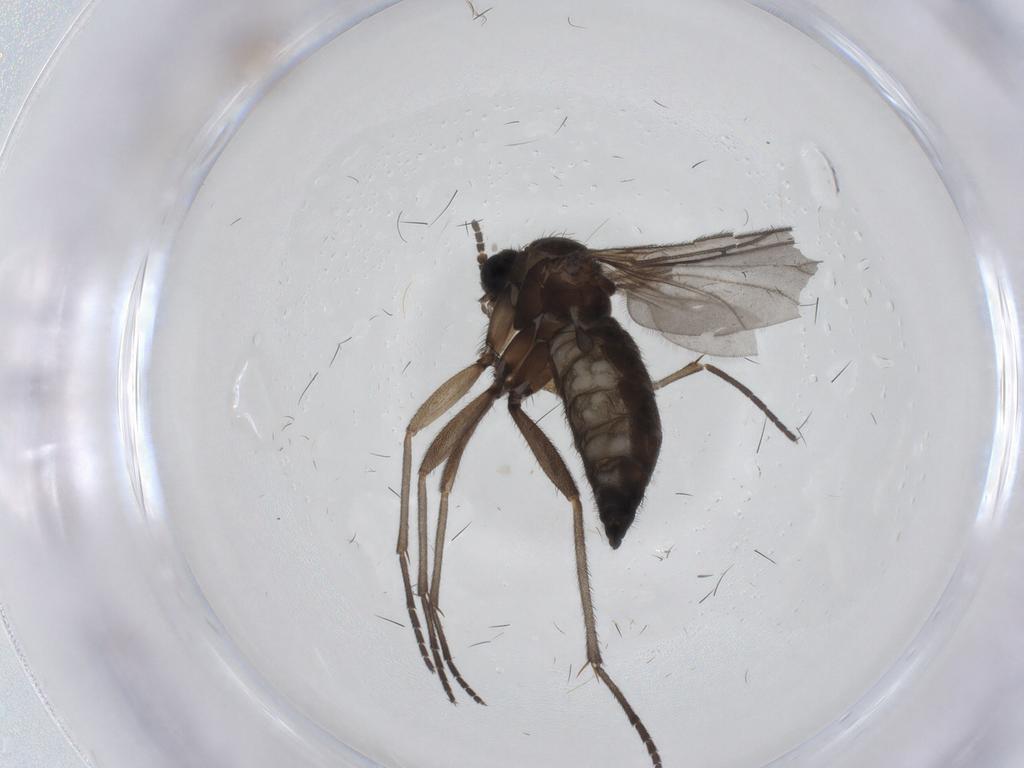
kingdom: Animalia
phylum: Arthropoda
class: Insecta
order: Diptera
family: Sciaridae
